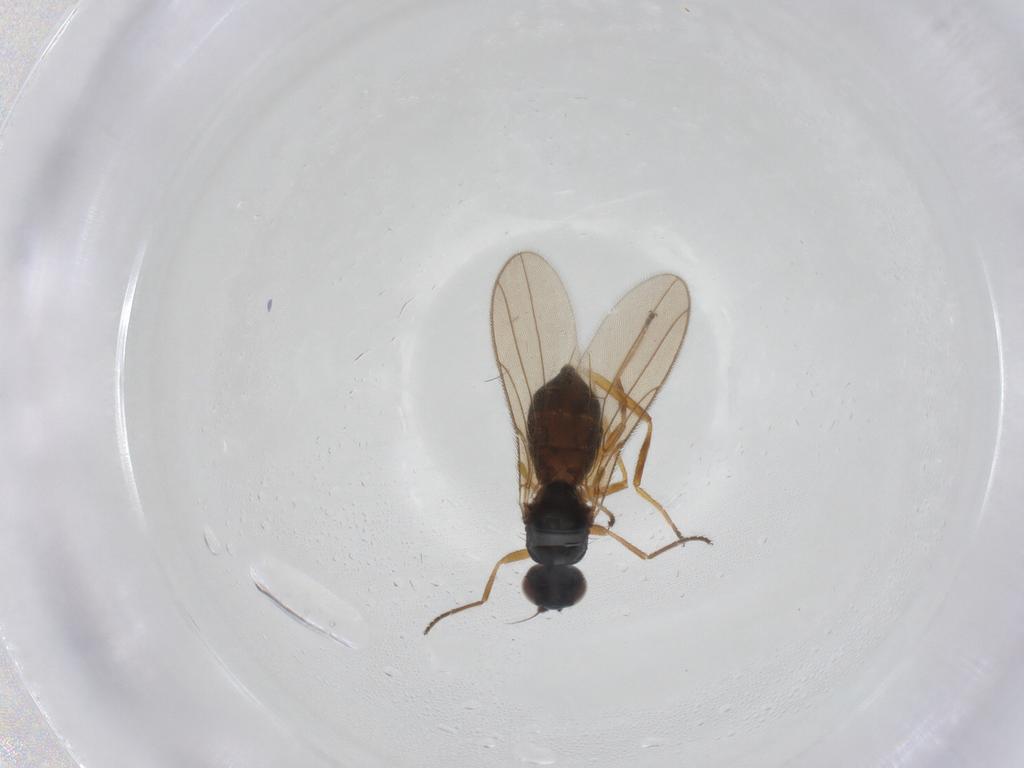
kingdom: Animalia
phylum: Arthropoda
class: Insecta
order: Diptera
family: Chloropidae
